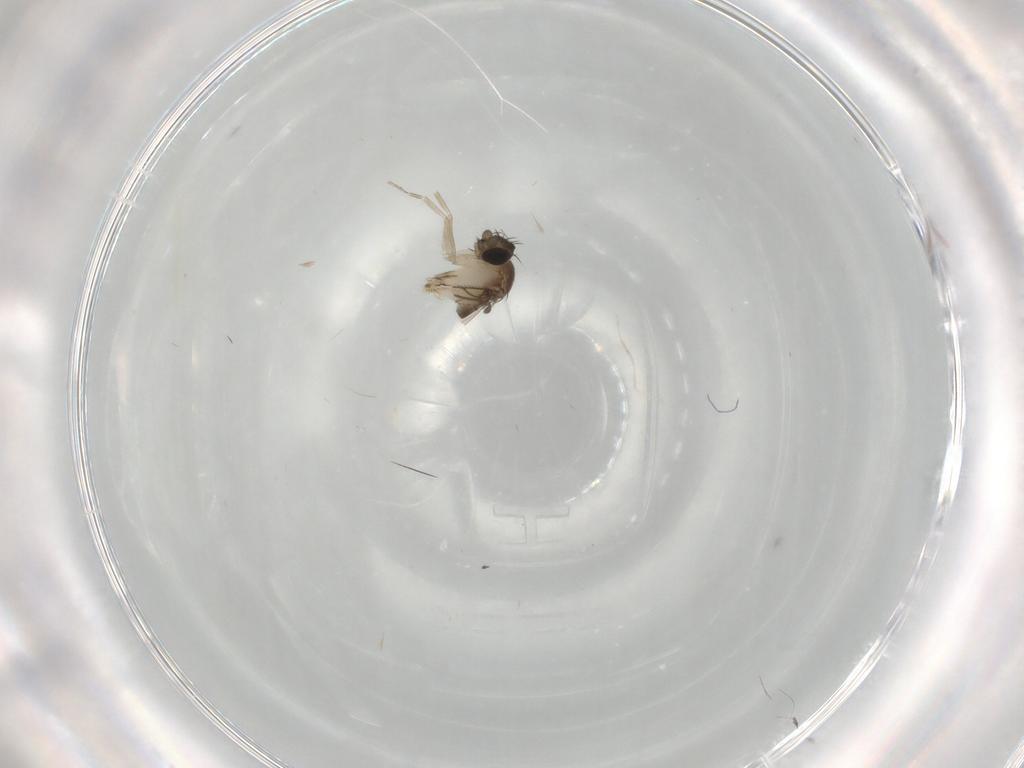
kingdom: Animalia
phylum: Arthropoda
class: Insecta
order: Diptera
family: Phoridae
